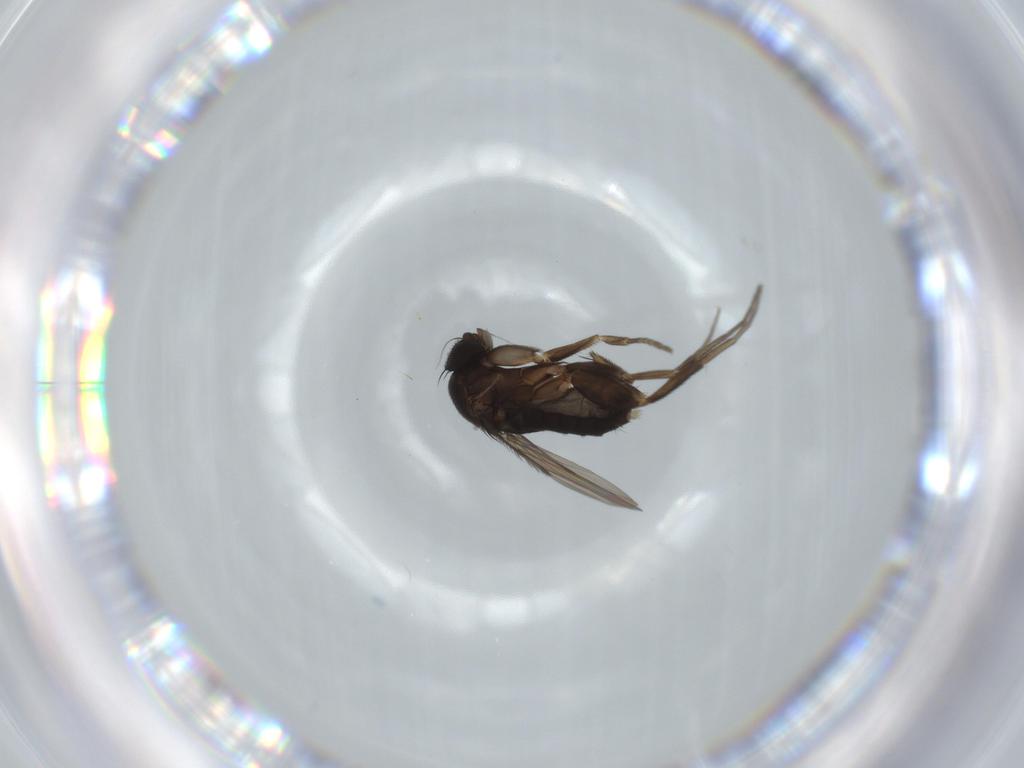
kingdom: Animalia
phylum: Arthropoda
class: Insecta
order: Diptera
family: Phoridae
